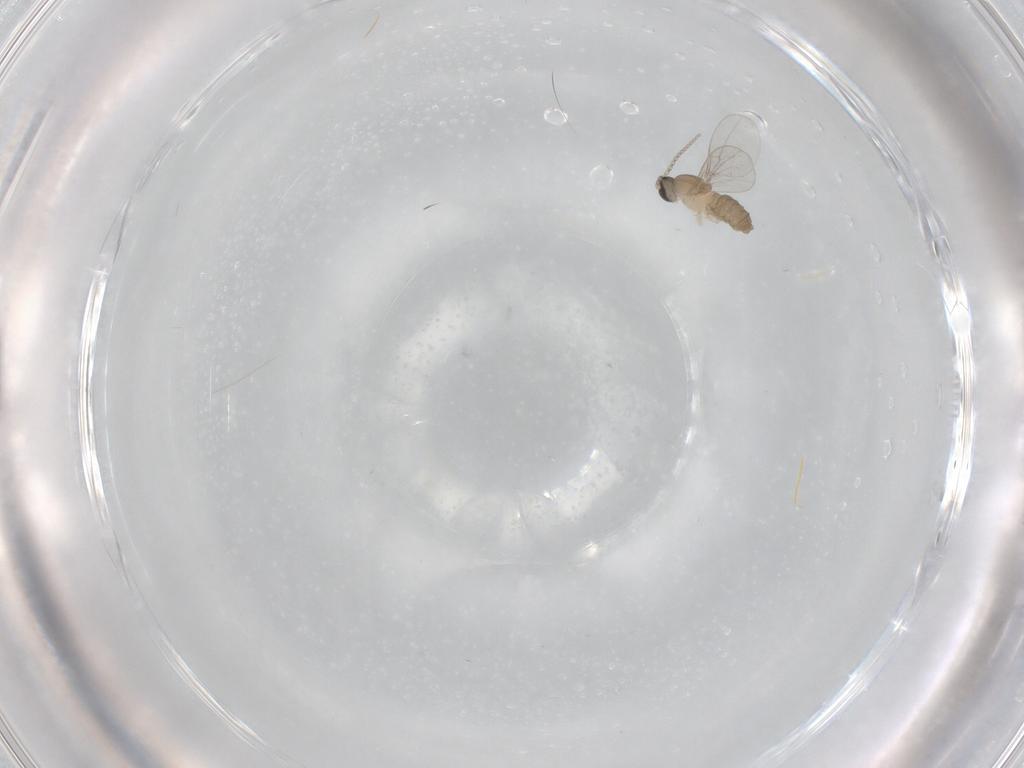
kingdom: Animalia
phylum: Arthropoda
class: Insecta
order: Diptera
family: Cecidomyiidae
